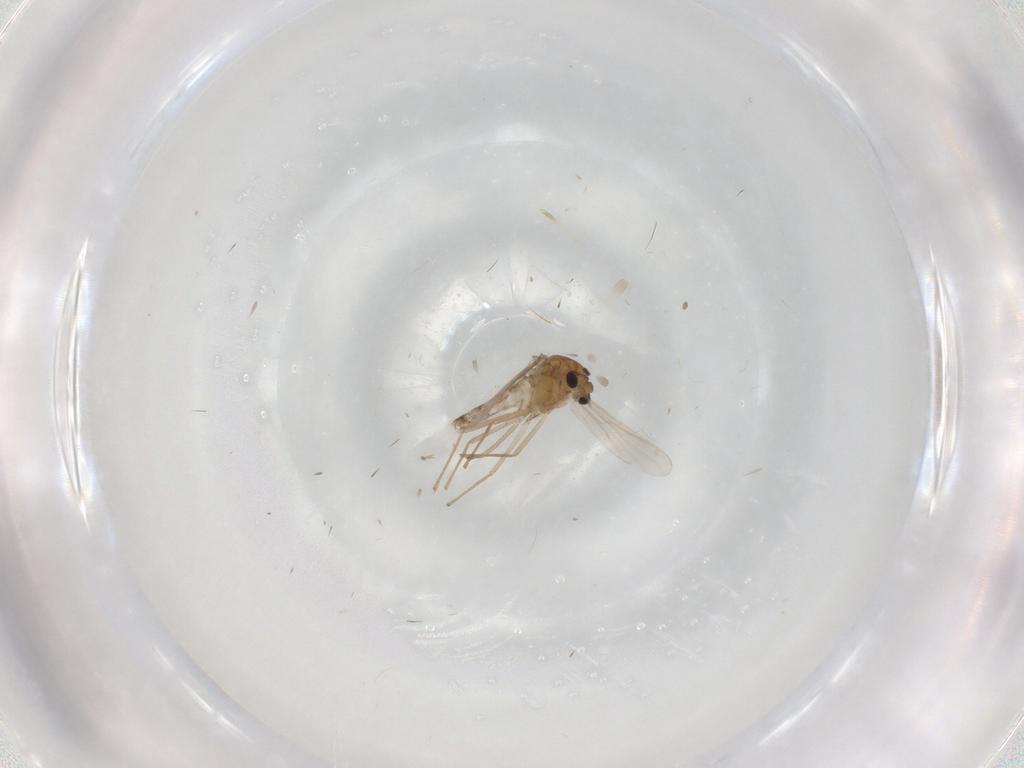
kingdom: Animalia
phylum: Arthropoda
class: Insecta
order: Diptera
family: Chironomidae
